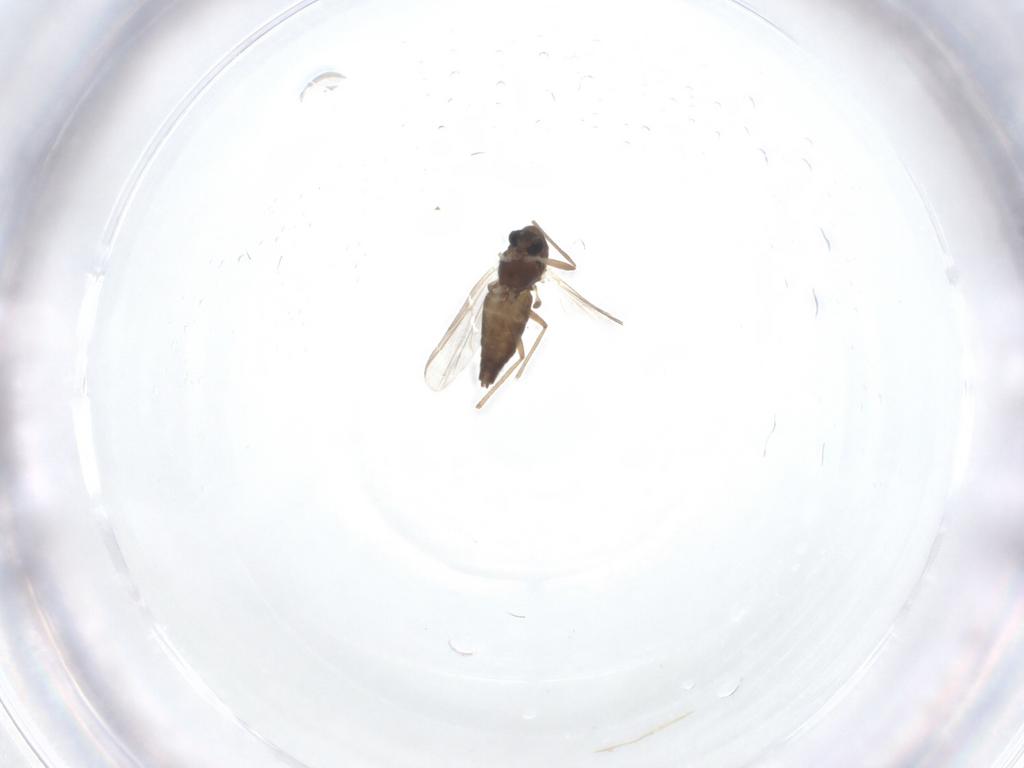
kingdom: Animalia
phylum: Arthropoda
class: Insecta
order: Diptera
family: Chironomidae
